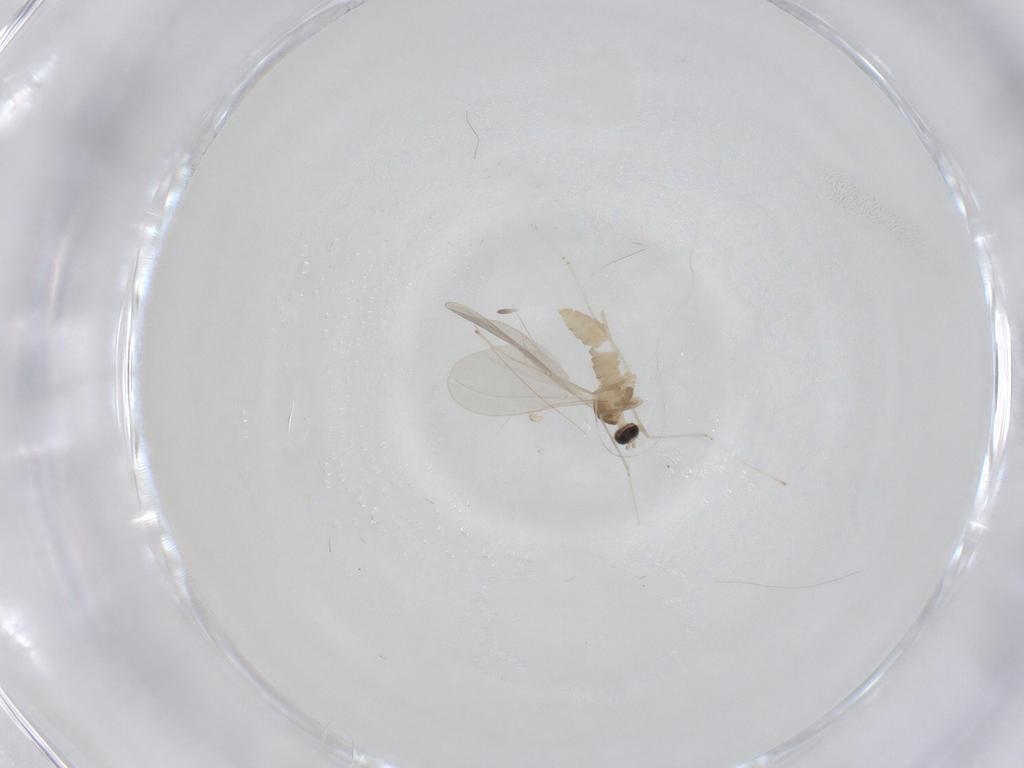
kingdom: Animalia
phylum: Arthropoda
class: Insecta
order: Diptera
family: Cecidomyiidae
